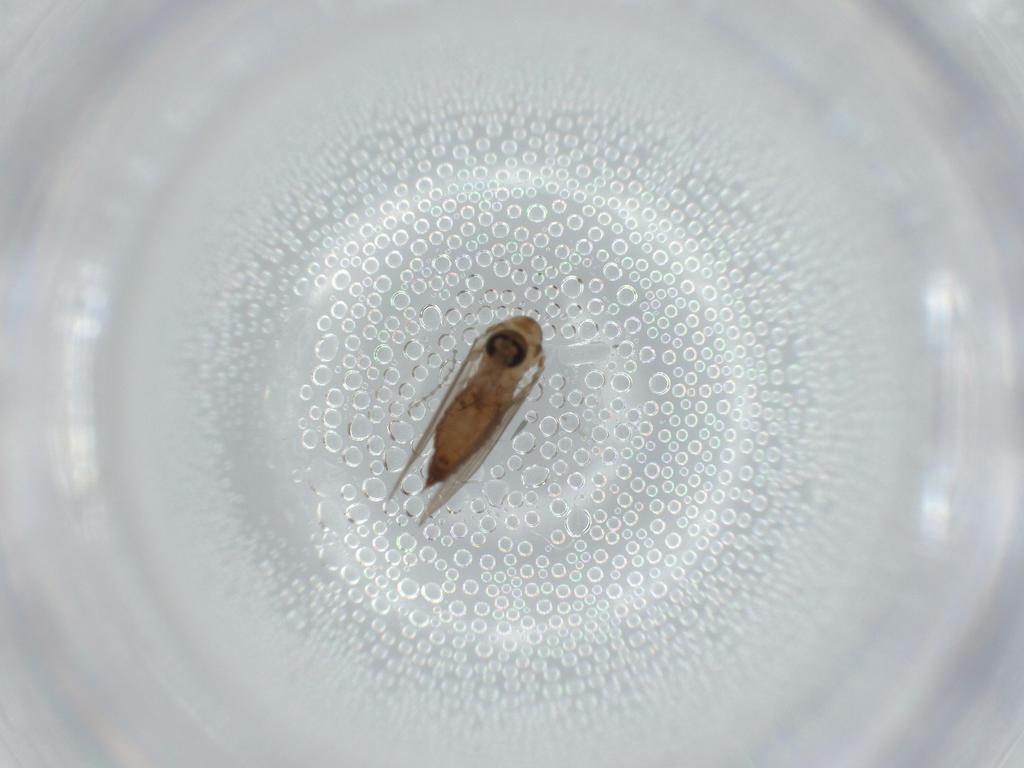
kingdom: Animalia
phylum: Arthropoda
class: Insecta
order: Diptera
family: Psychodidae
